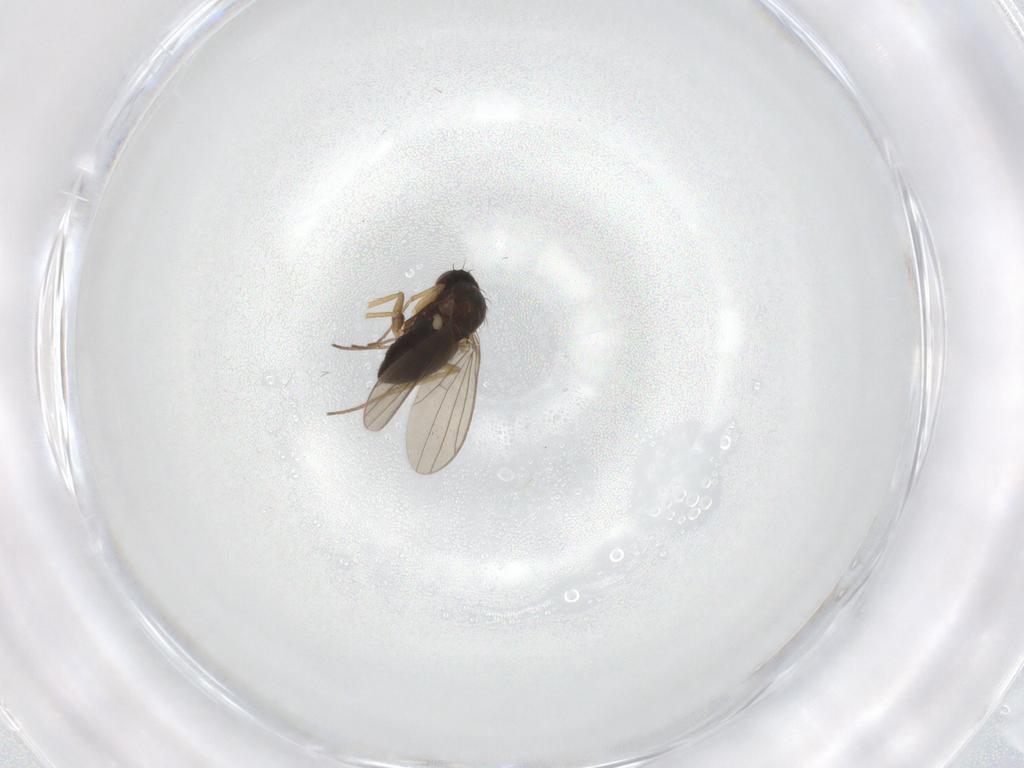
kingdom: Animalia
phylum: Arthropoda
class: Insecta
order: Diptera
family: Dolichopodidae
